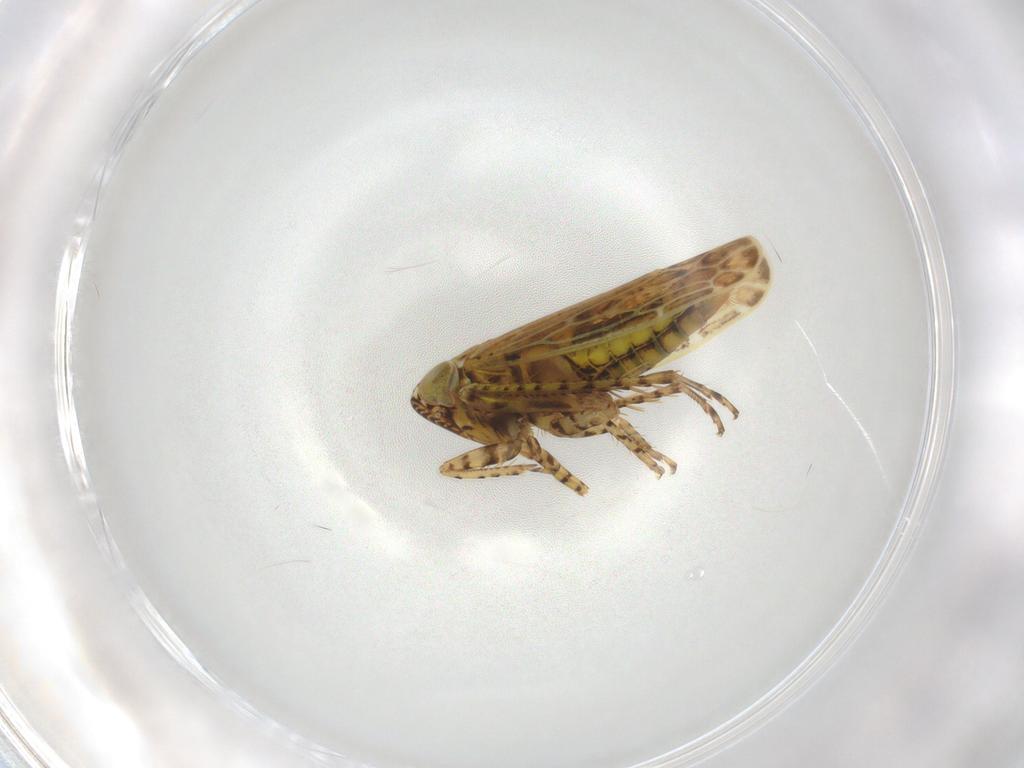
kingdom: Animalia
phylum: Arthropoda
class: Insecta
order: Hemiptera
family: Cicadellidae
